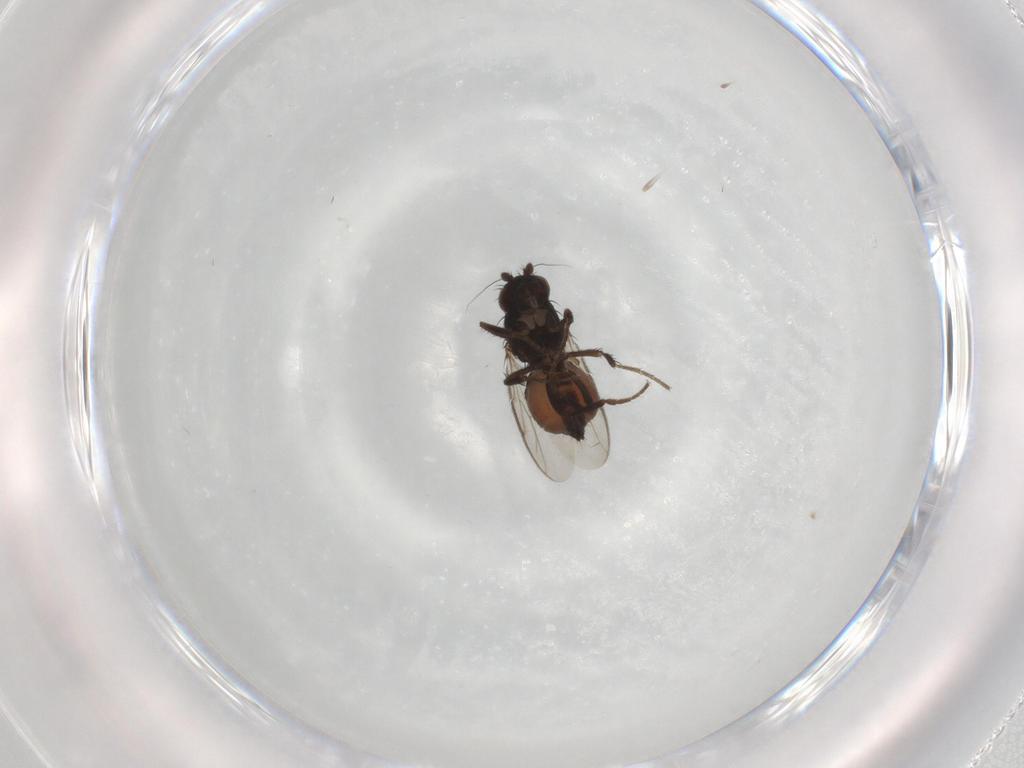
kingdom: Animalia
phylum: Arthropoda
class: Insecta
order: Diptera
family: Sphaeroceridae
